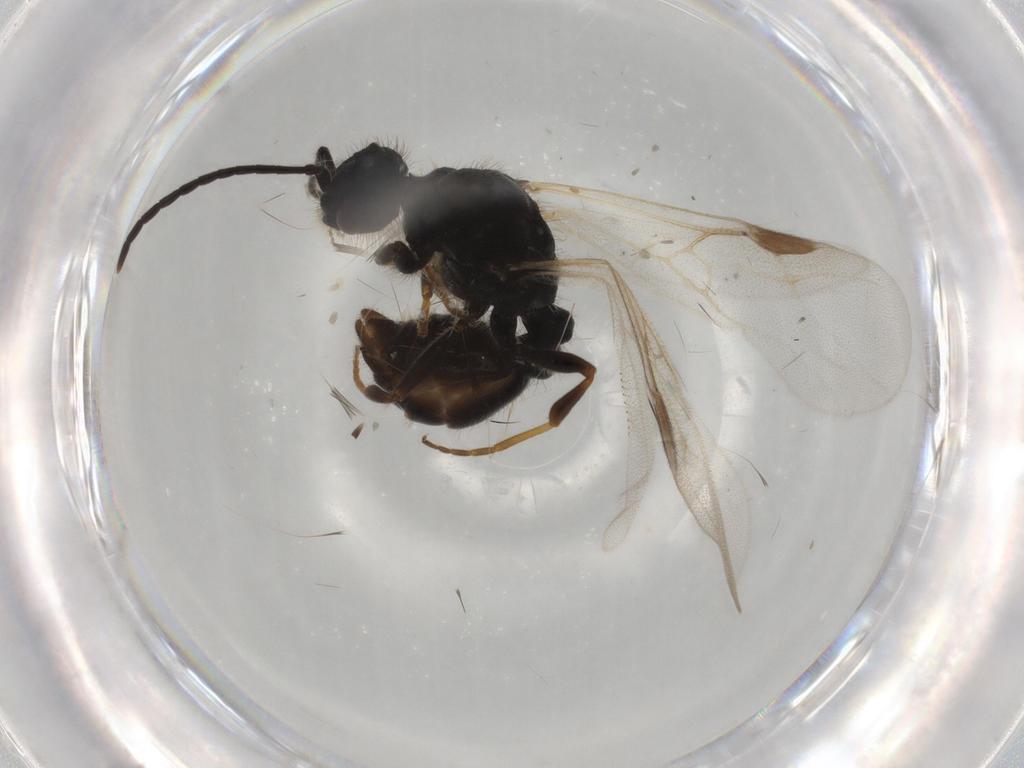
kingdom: Animalia
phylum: Arthropoda
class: Insecta
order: Hymenoptera
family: Formicidae
